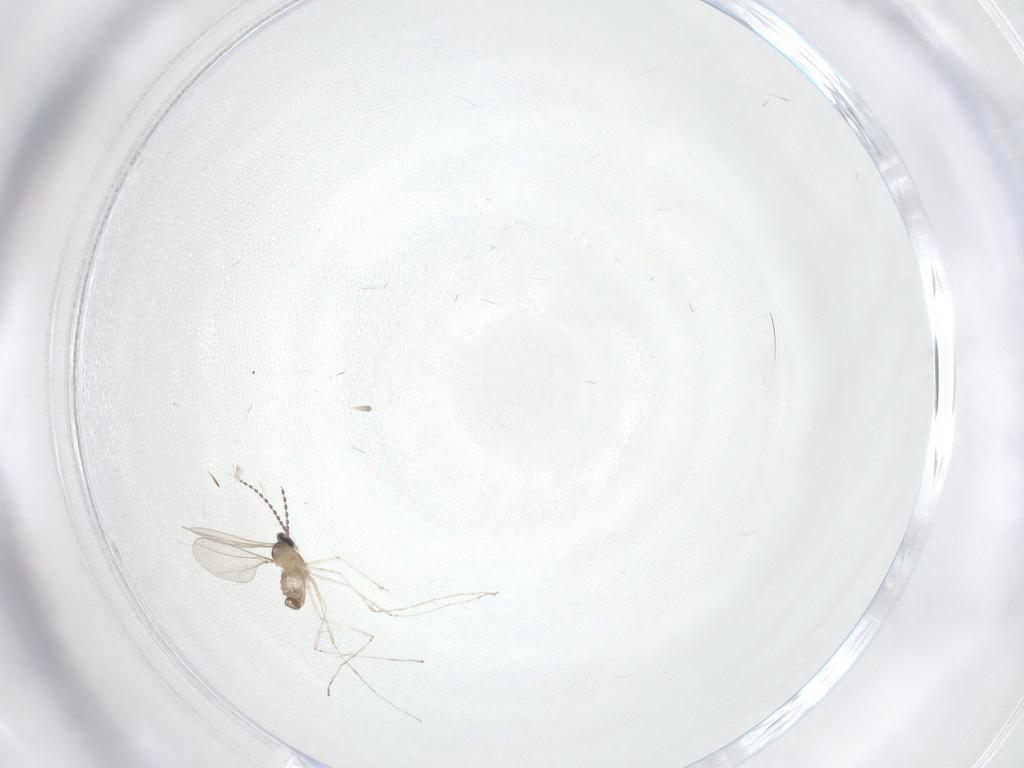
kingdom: Animalia
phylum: Arthropoda
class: Insecta
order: Diptera
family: Cecidomyiidae
